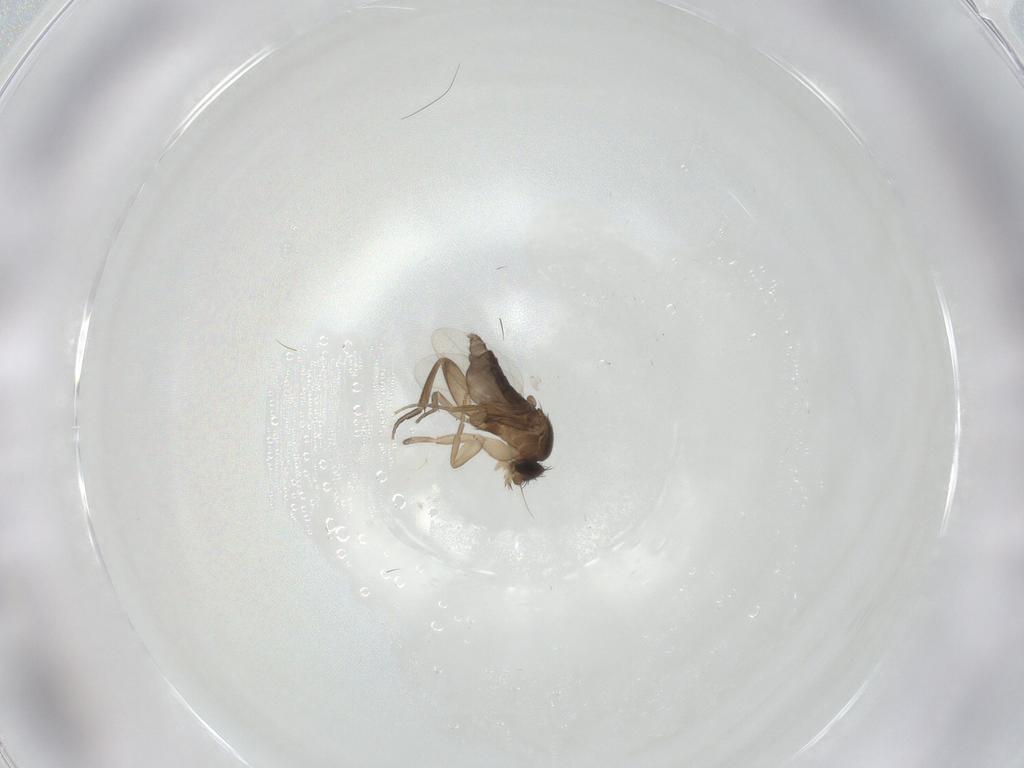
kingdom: Animalia
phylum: Arthropoda
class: Insecta
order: Diptera
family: Phoridae
